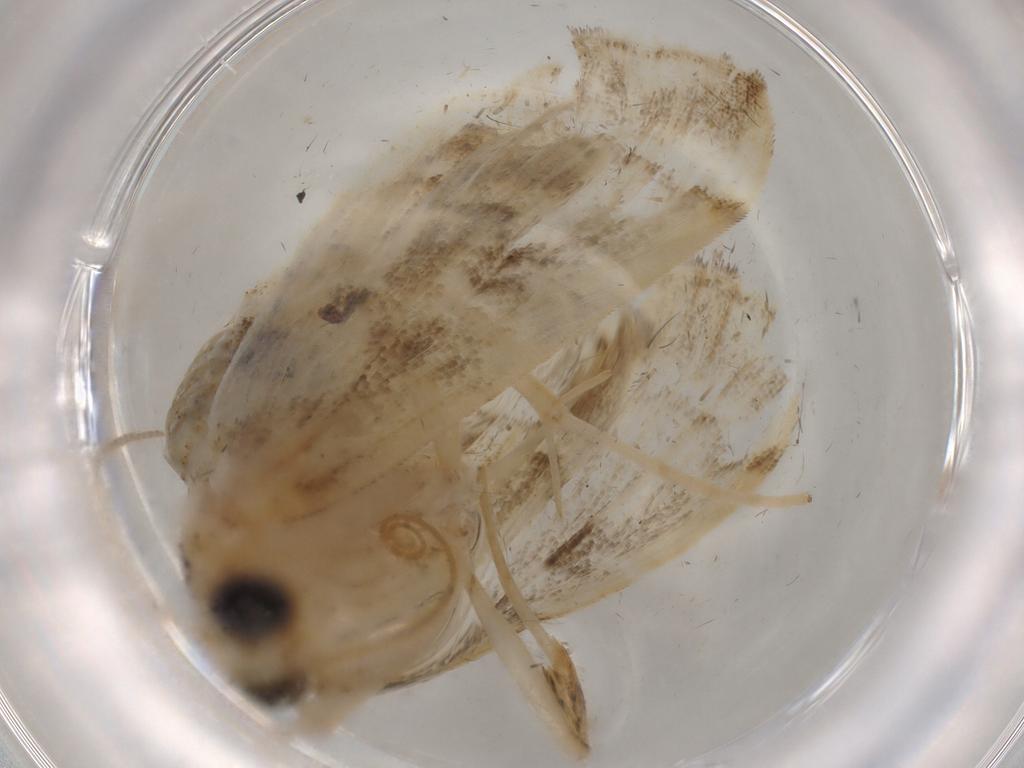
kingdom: Animalia
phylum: Arthropoda
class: Insecta
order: Lepidoptera
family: Noctuidae
